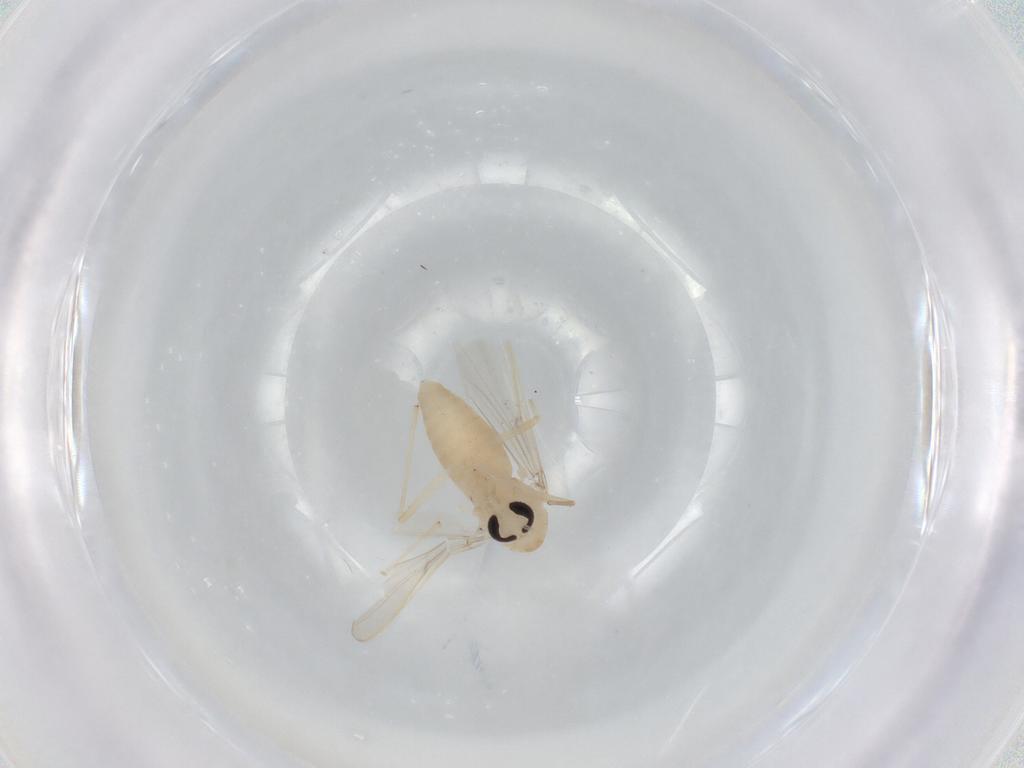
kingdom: Animalia
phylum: Arthropoda
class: Insecta
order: Diptera
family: Chironomidae
